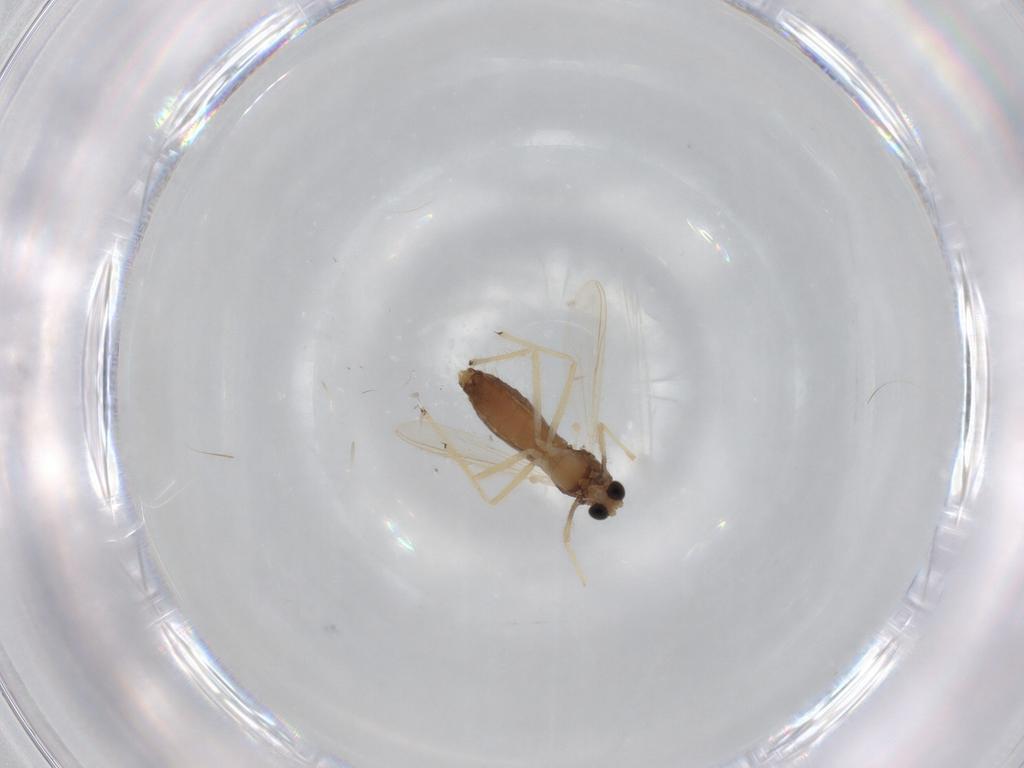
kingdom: Animalia
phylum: Arthropoda
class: Insecta
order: Diptera
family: Chironomidae
